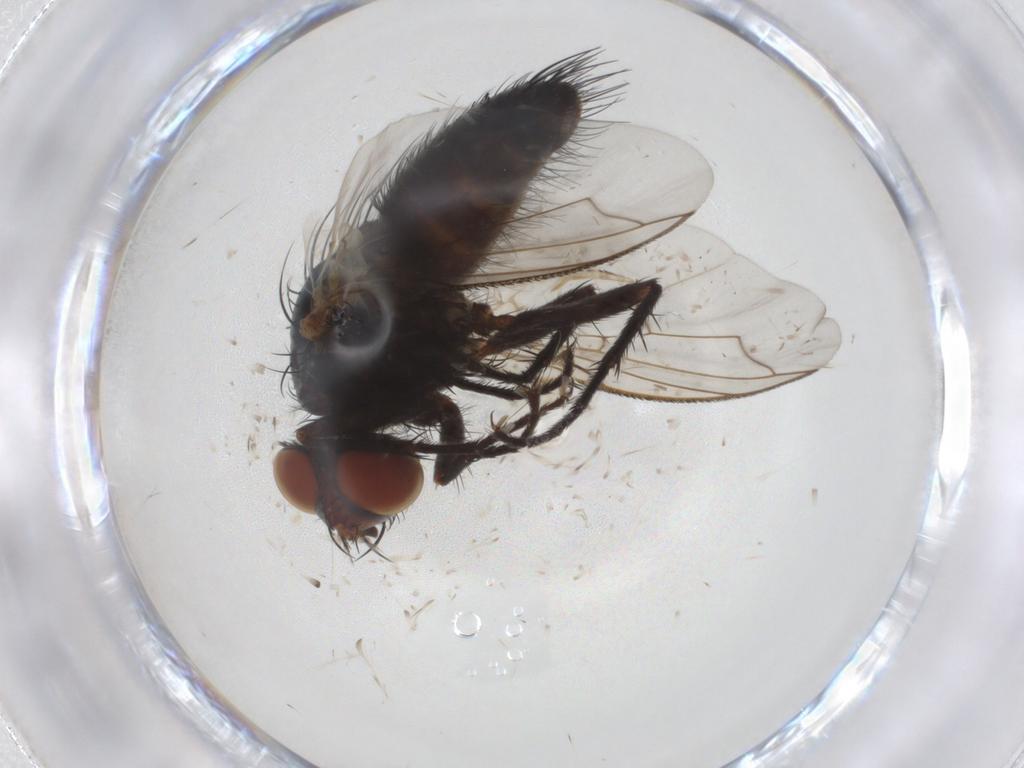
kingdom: Animalia
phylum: Arthropoda
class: Insecta
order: Diptera
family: Tachinidae
